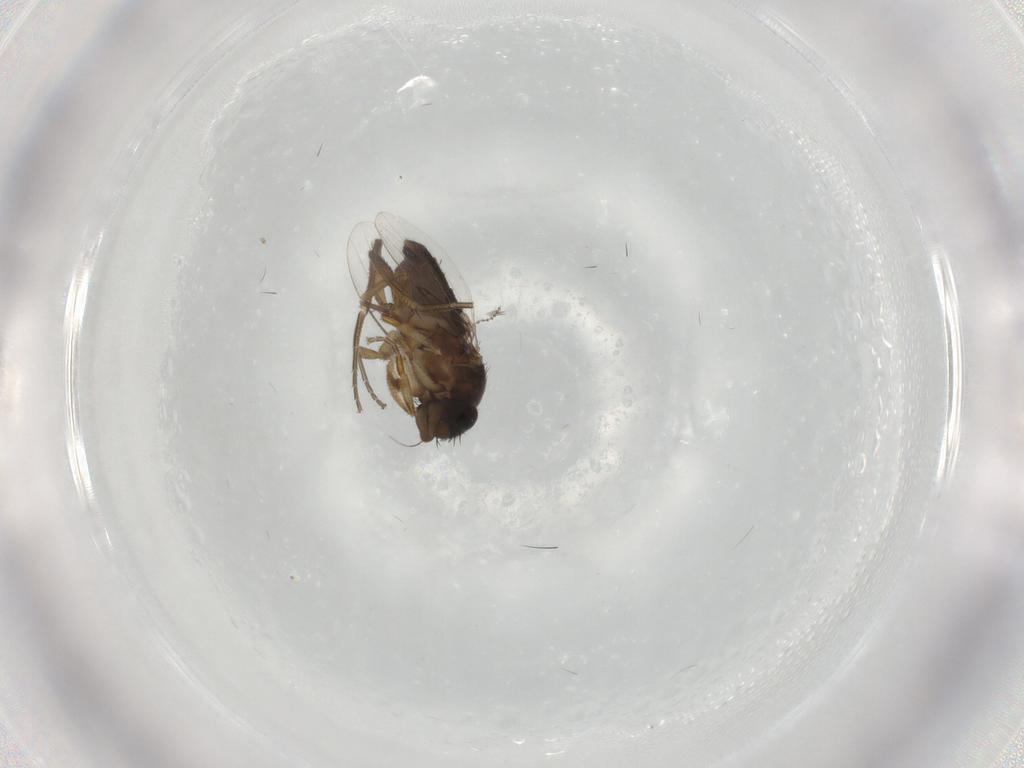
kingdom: Animalia
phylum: Arthropoda
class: Insecta
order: Diptera
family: Phoridae
